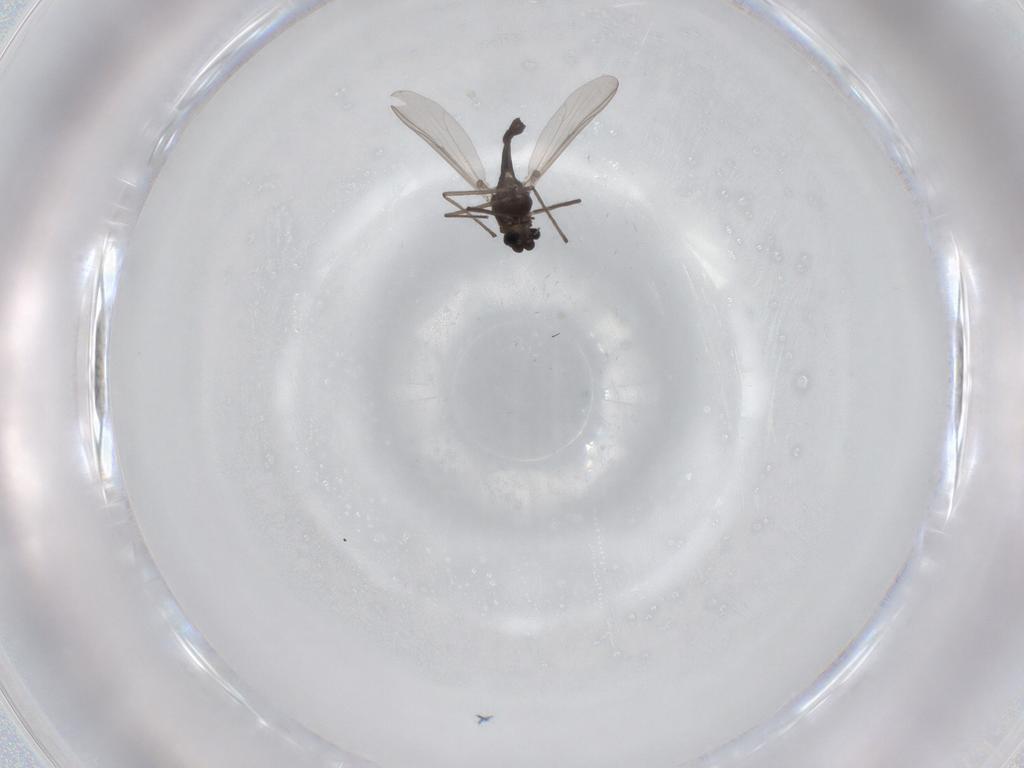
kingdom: Animalia
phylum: Arthropoda
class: Insecta
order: Diptera
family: Chironomidae
